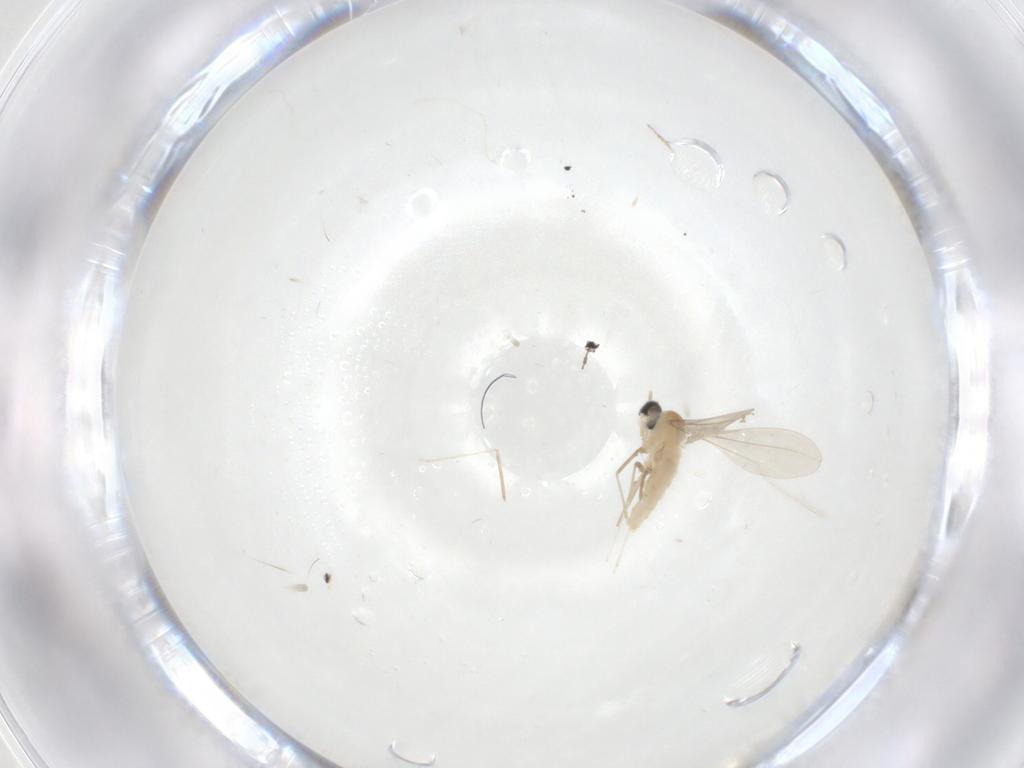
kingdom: Animalia
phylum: Arthropoda
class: Insecta
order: Diptera
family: Cecidomyiidae
